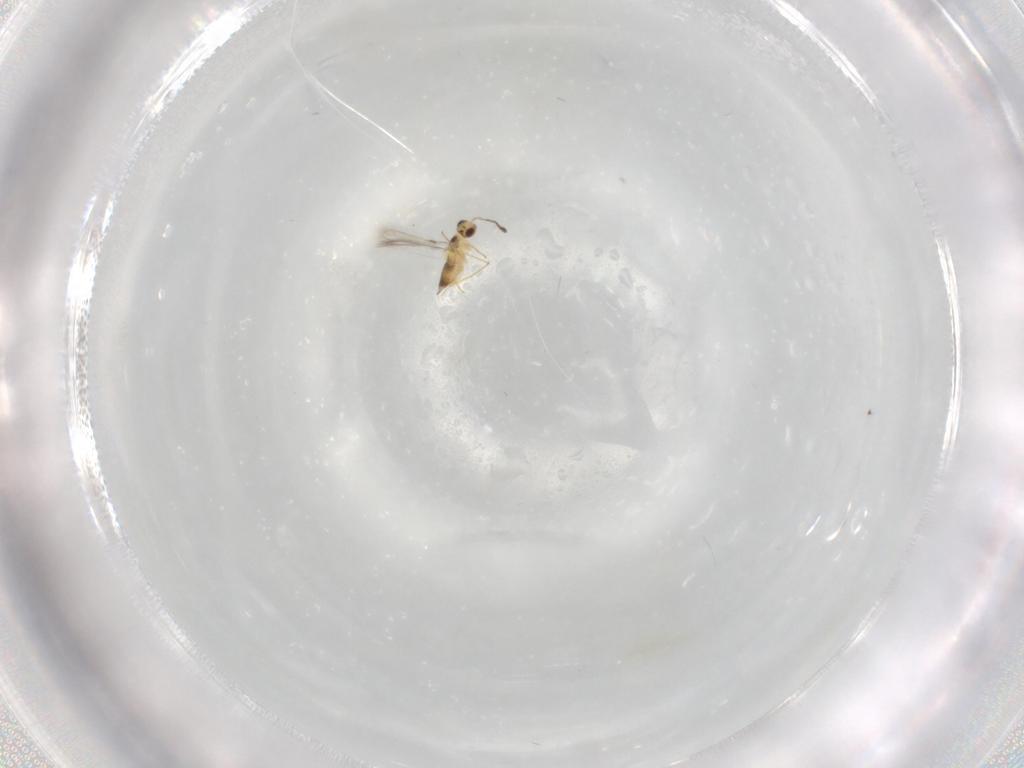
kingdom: Animalia
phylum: Arthropoda
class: Insecta
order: Hymenoptera
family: Mymaridae
